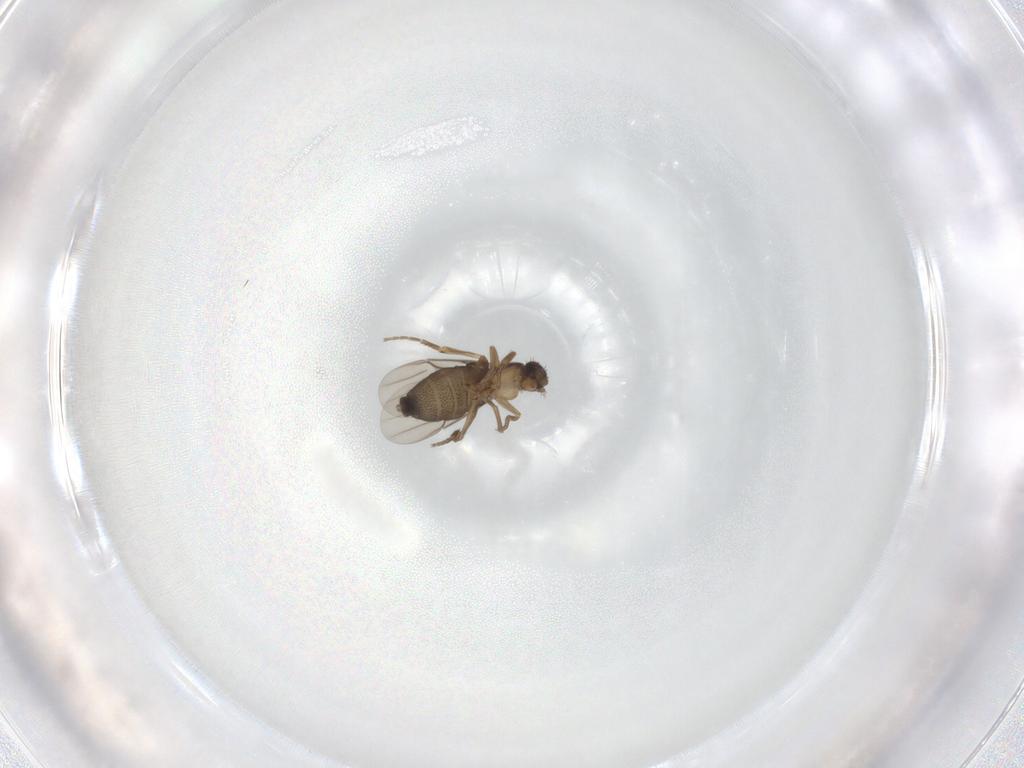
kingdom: Animalia
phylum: Arthropoda
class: Insecta
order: Diptera
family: Phoridae
